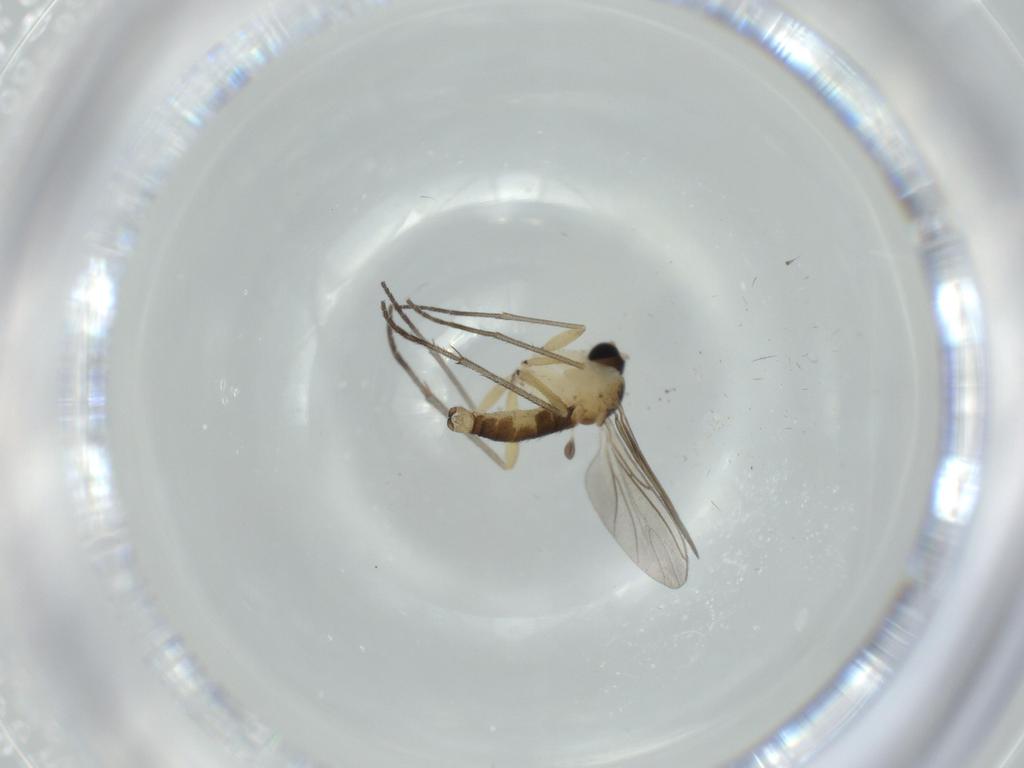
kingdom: Animalia
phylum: Arthropoda
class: Insecta
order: Diptera
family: Sciaridae
